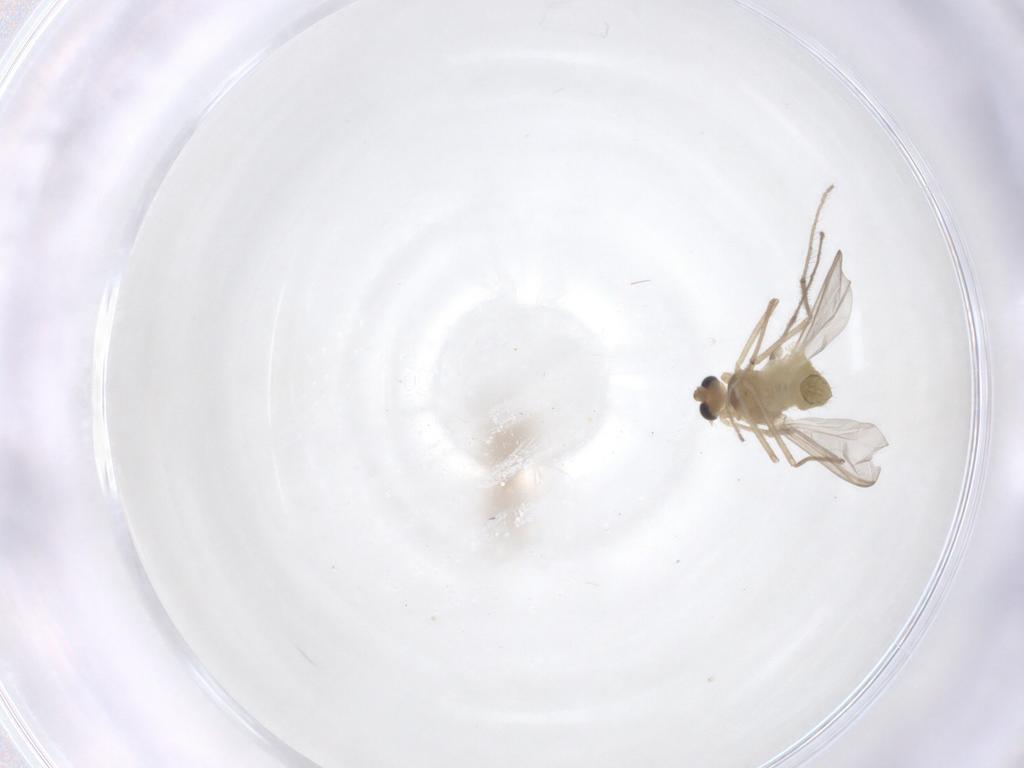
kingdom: Animalia
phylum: Arthropoda
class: Insecta
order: Diptera
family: Chironomidae
